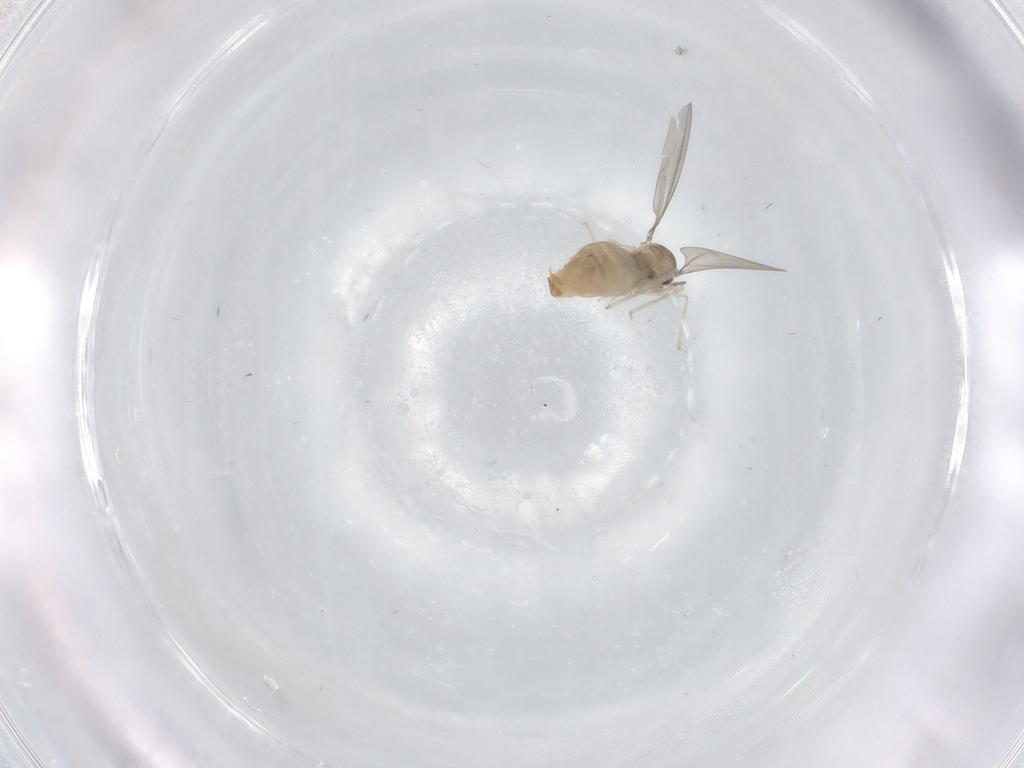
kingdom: Animalia
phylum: Arthropoda
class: Insecta
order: Diptera
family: Cecidomyiidae
